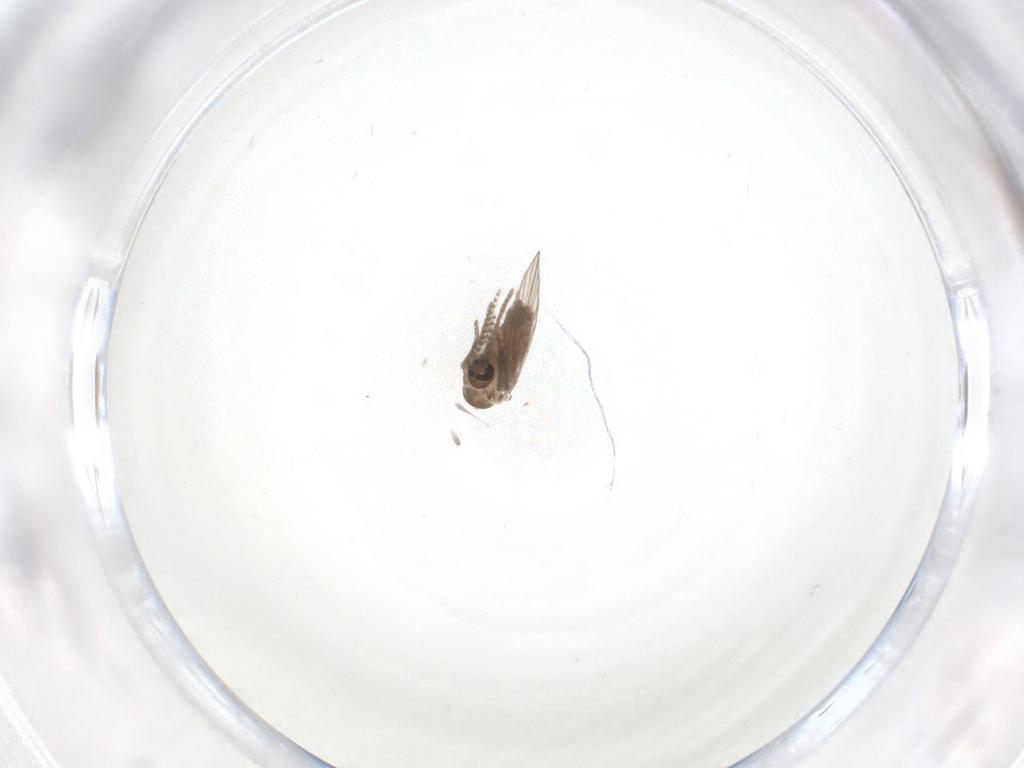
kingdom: Animalia
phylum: Arthropoda
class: Insecta
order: Diptera
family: Psychodidae
